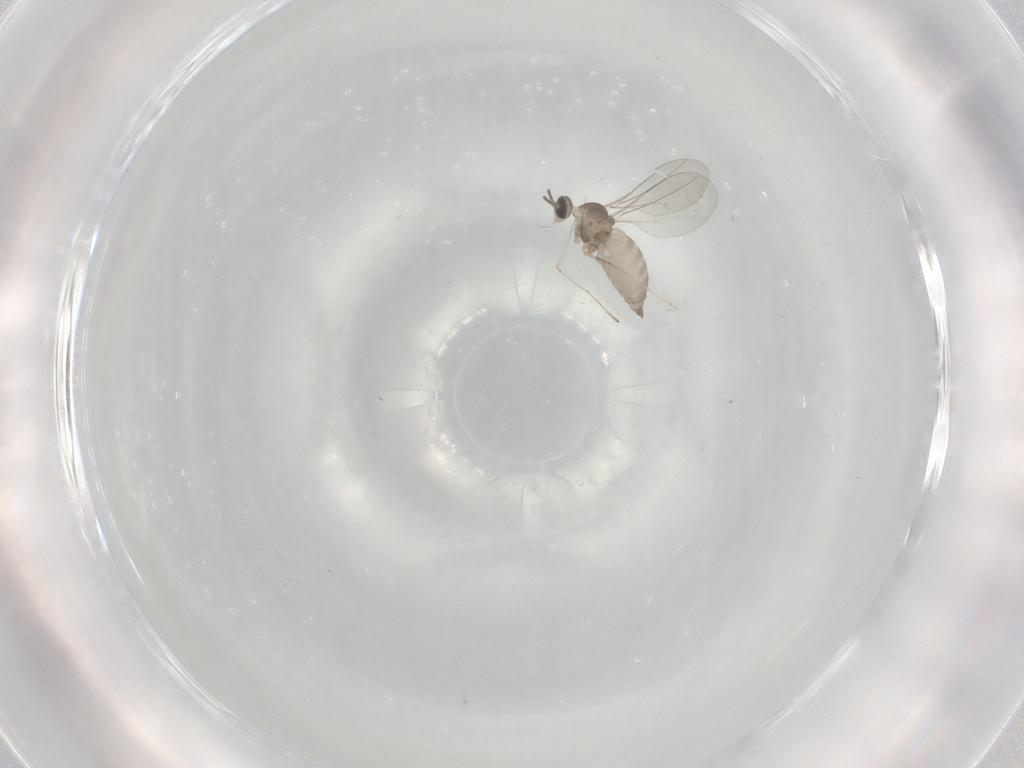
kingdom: Animalia
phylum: Arthropoda
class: Insecta
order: Diptera
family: Cecidomyiidae
